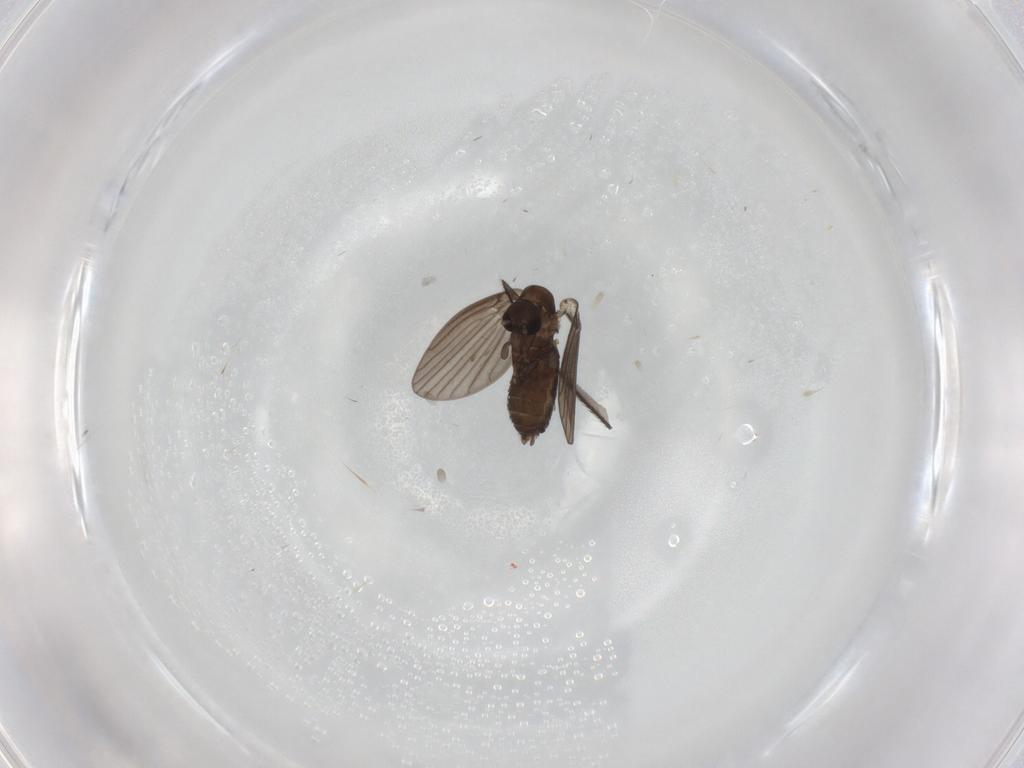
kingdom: Animalia
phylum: Arthropoda
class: Insecta
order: Diptera
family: Limoniidae
